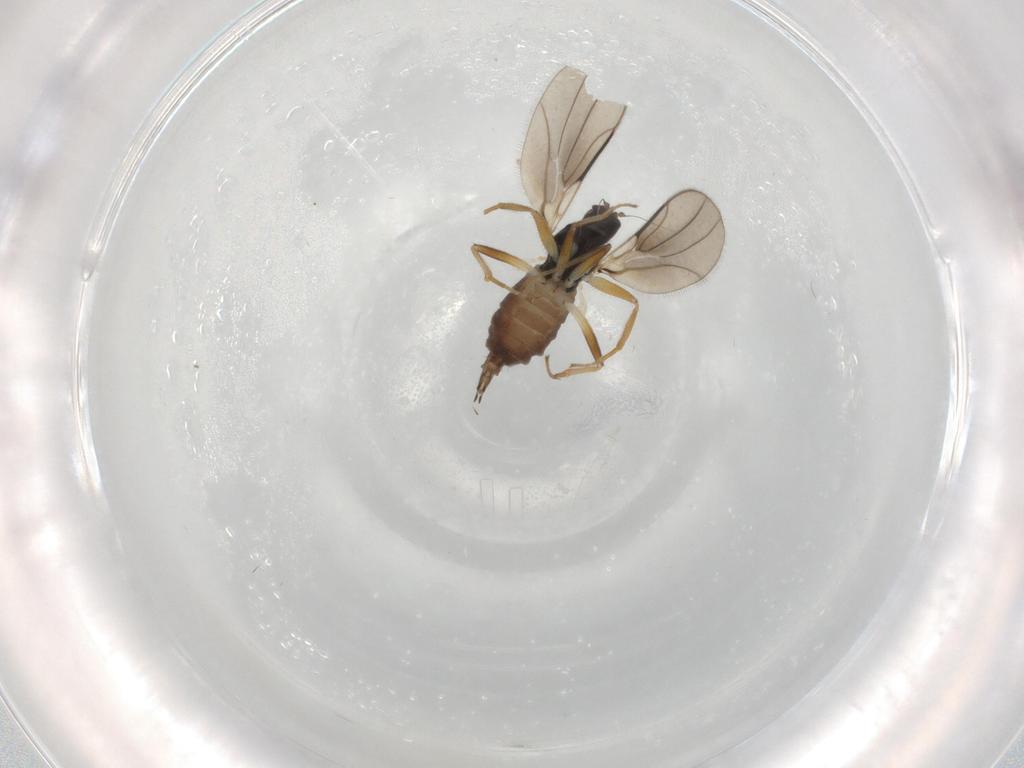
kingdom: Animalia
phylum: Arthropoda
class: Insecta
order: Diptera
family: Hybotidae
